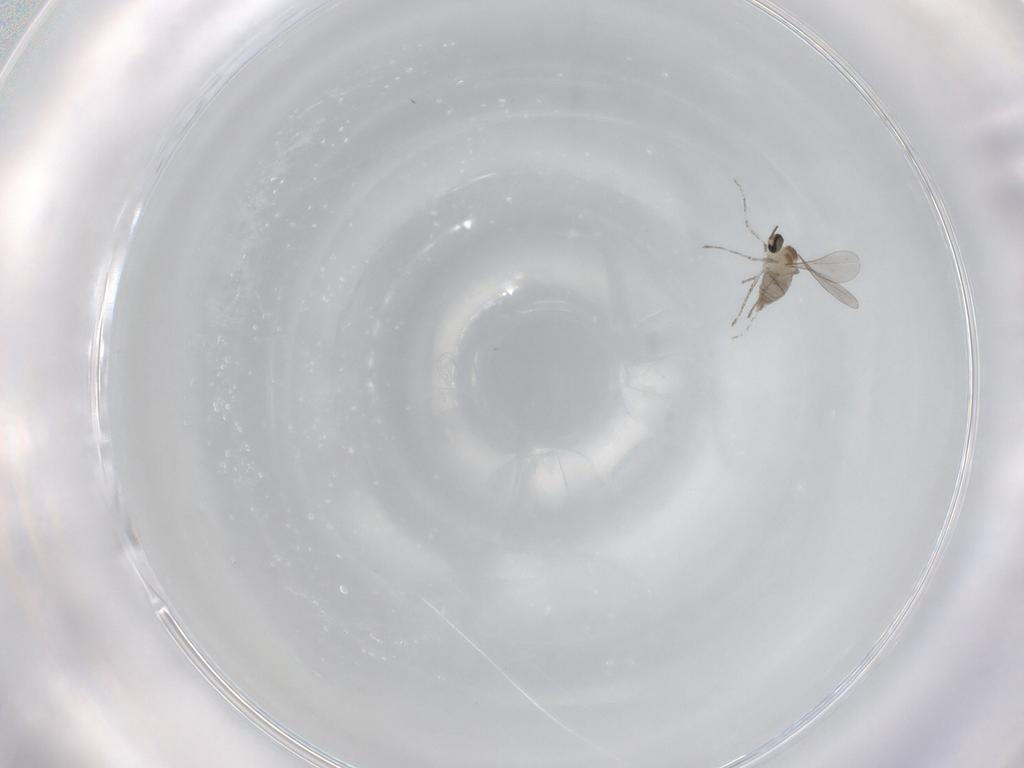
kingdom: Animalia
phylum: Arthropoda
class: Insecta
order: Diptera
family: Cecidomyiidae
